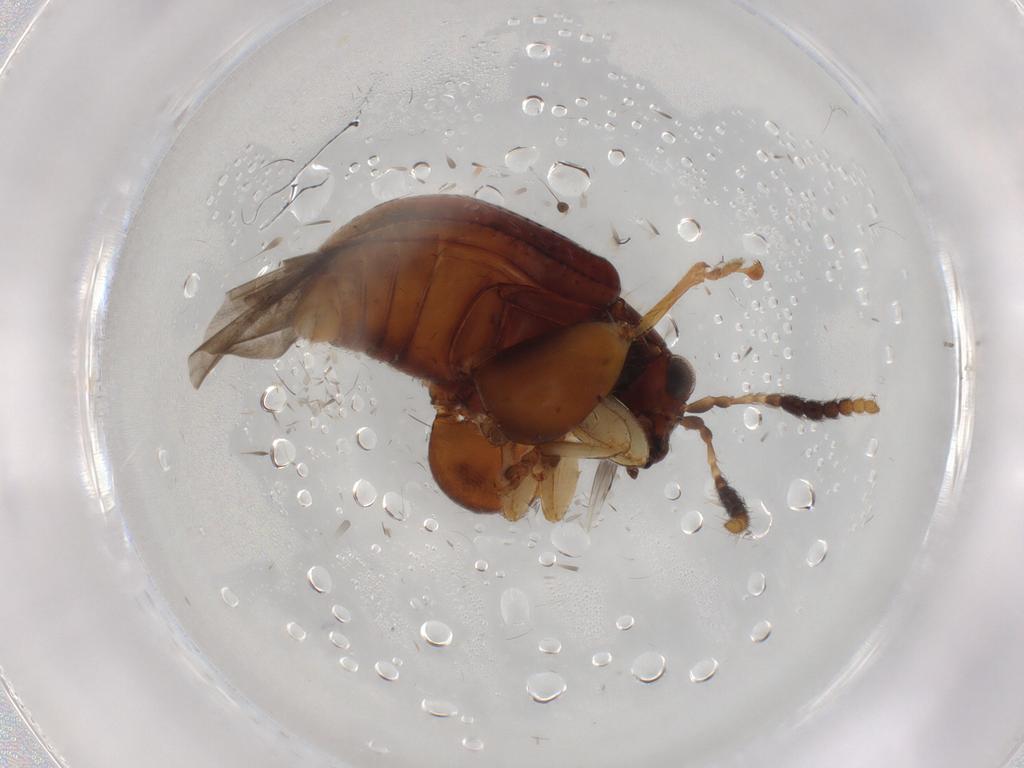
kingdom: Animalia
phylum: Arthropoda
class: Insecta
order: Coleoptera
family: Chrysomelidae
